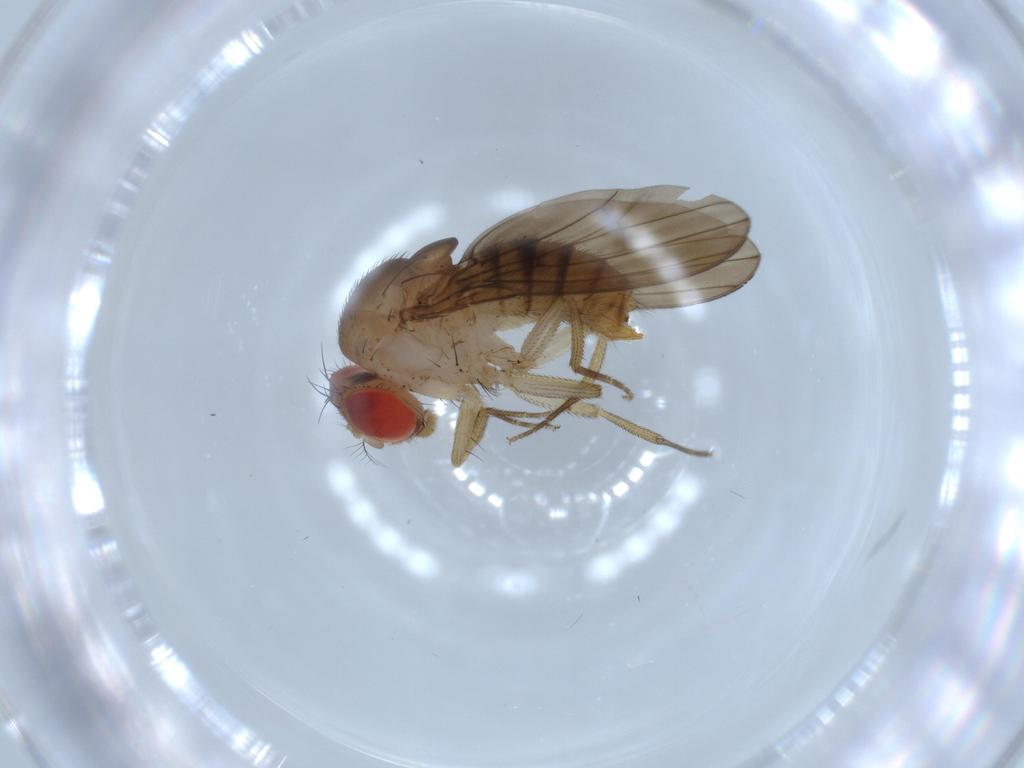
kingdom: Animalia
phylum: Arthropoda
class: Insecta
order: Diptera
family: Drosophilidae
